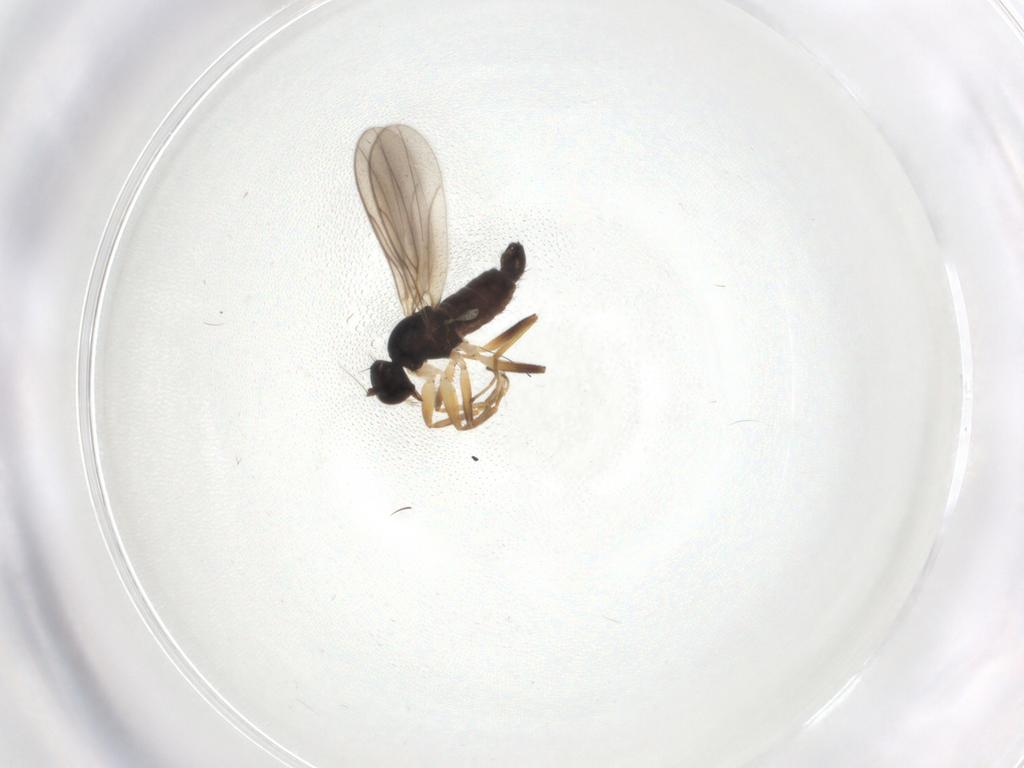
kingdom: Animalia
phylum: Arthropoda
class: Insecta
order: Diptera
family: Hybotidae
